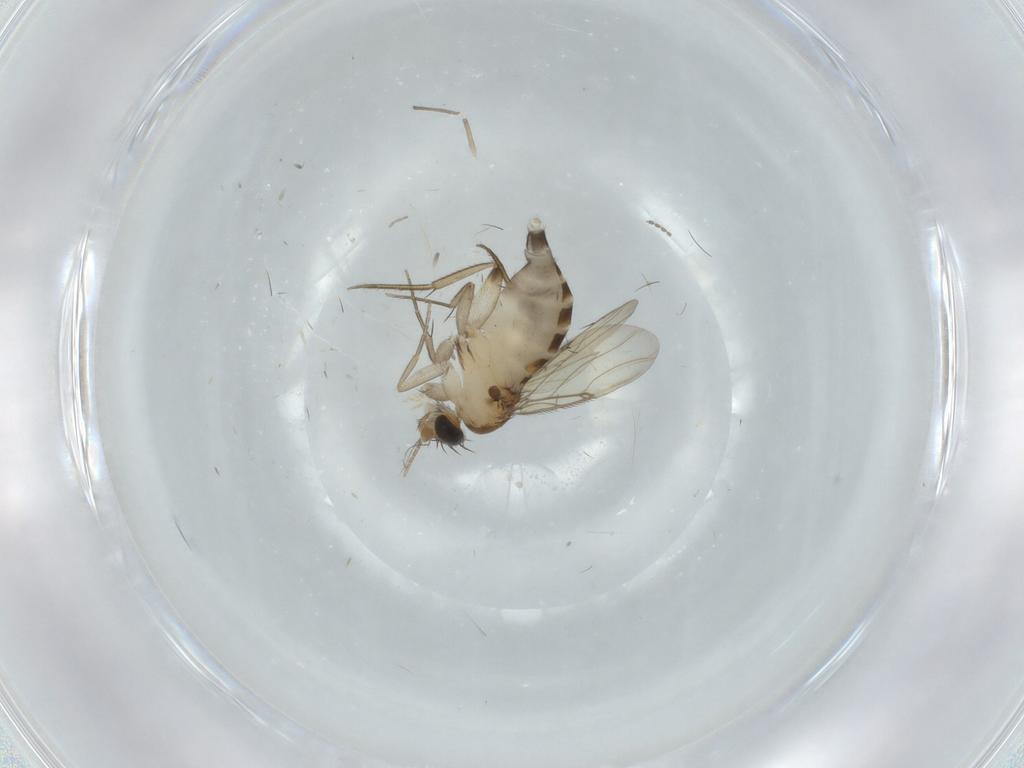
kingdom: Animalia
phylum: Arthropoda
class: Insecta
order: Diptera
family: Phoridae
